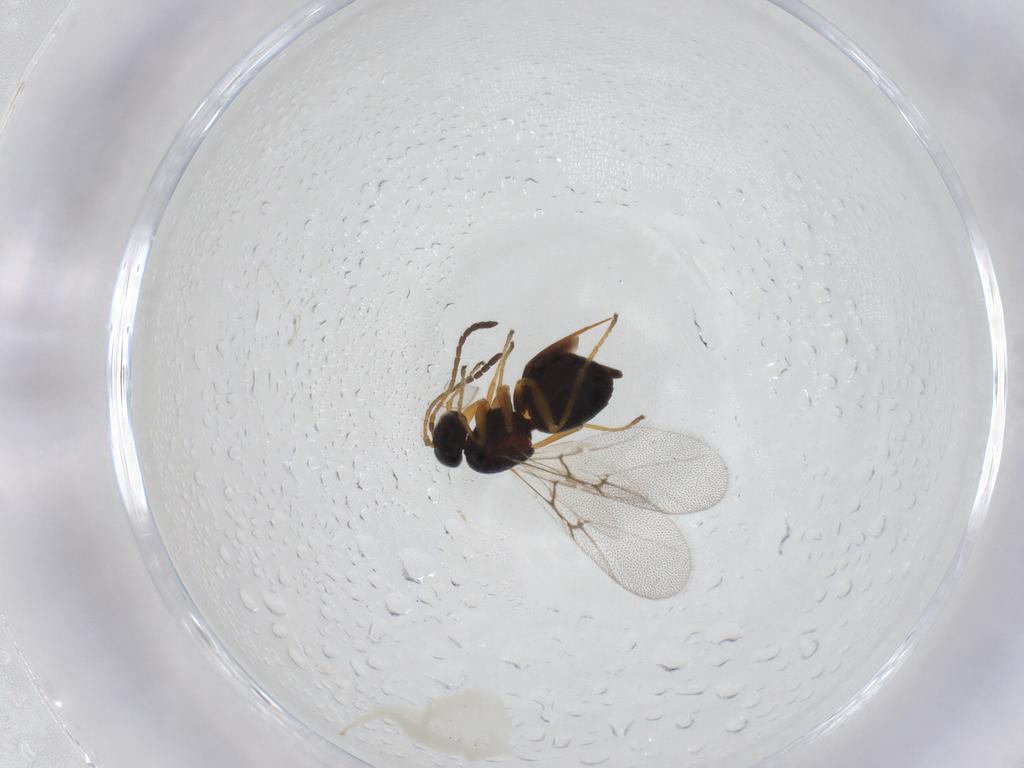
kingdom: Animalia
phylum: Arthropoda
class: Insecta
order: Hymenoptera
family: Cynipidae
